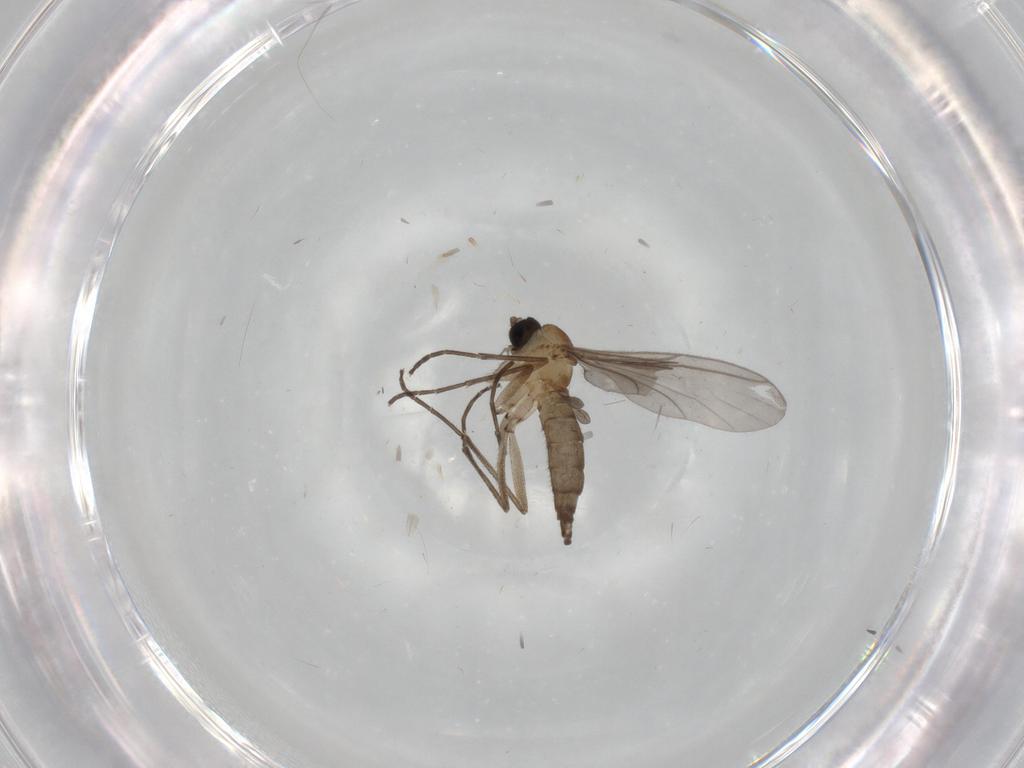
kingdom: Animalia
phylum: Arthropoda
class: Insecta
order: Diptera
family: Sciaridae
